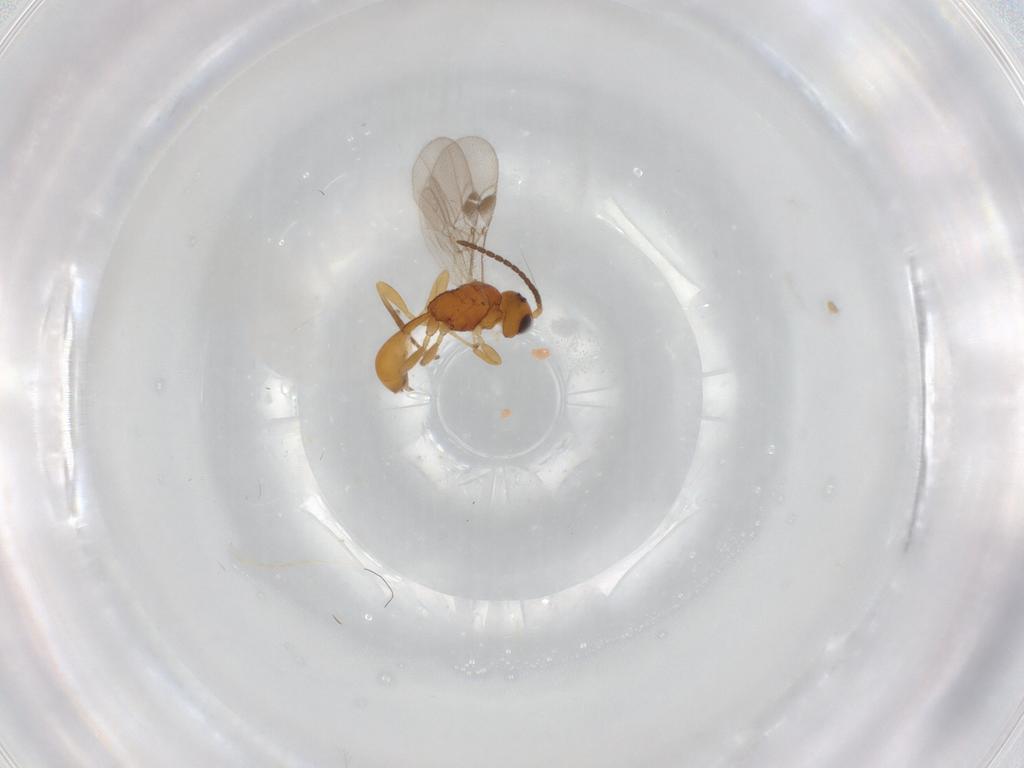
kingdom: Animalia
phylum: Arthropoda
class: Insecta
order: Hymenoptera
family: Braconidae
